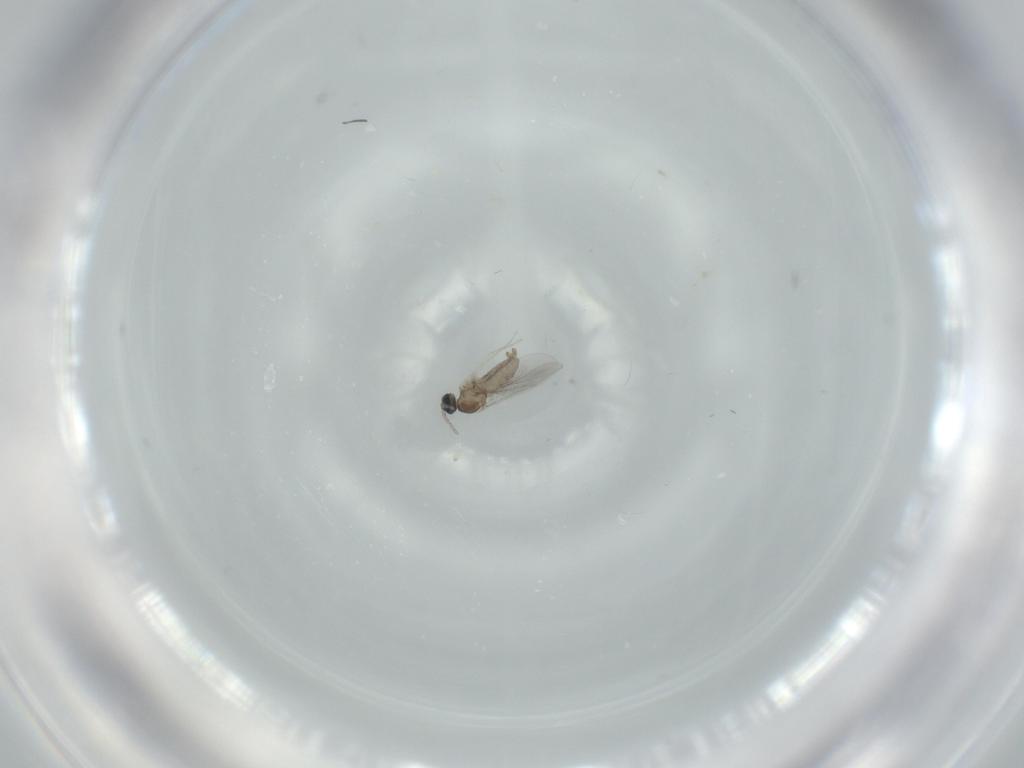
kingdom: Animalia
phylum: Arthropoda
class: Insecta
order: Diptera
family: Cecidomyiidae
